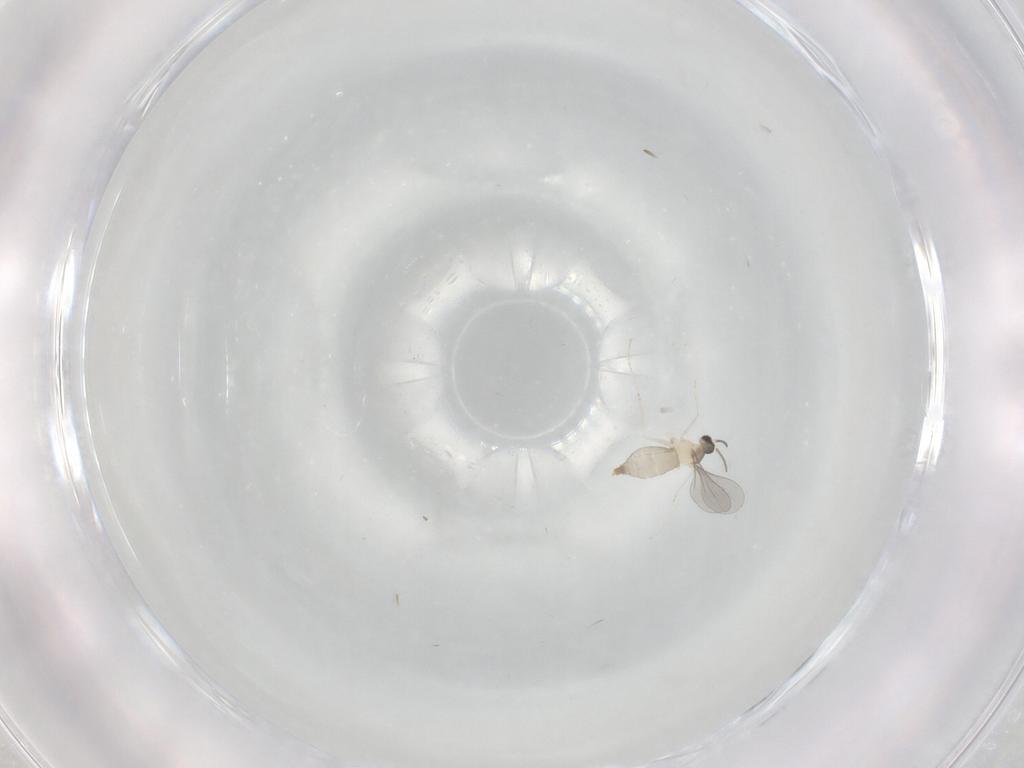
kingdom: Animalia
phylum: Arthropoda
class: Insecta
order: Diptera
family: Cecidomyiidae
